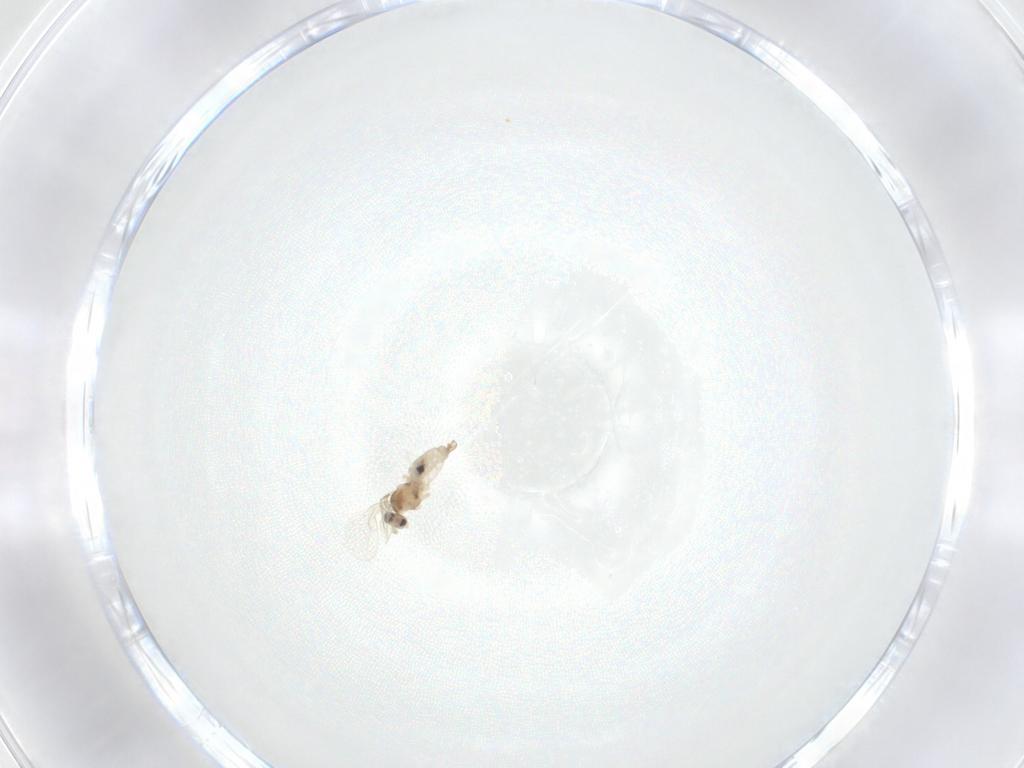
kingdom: Animalia
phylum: Arthropoda
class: Insecta
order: Diptera
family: Cecidomyiidae
